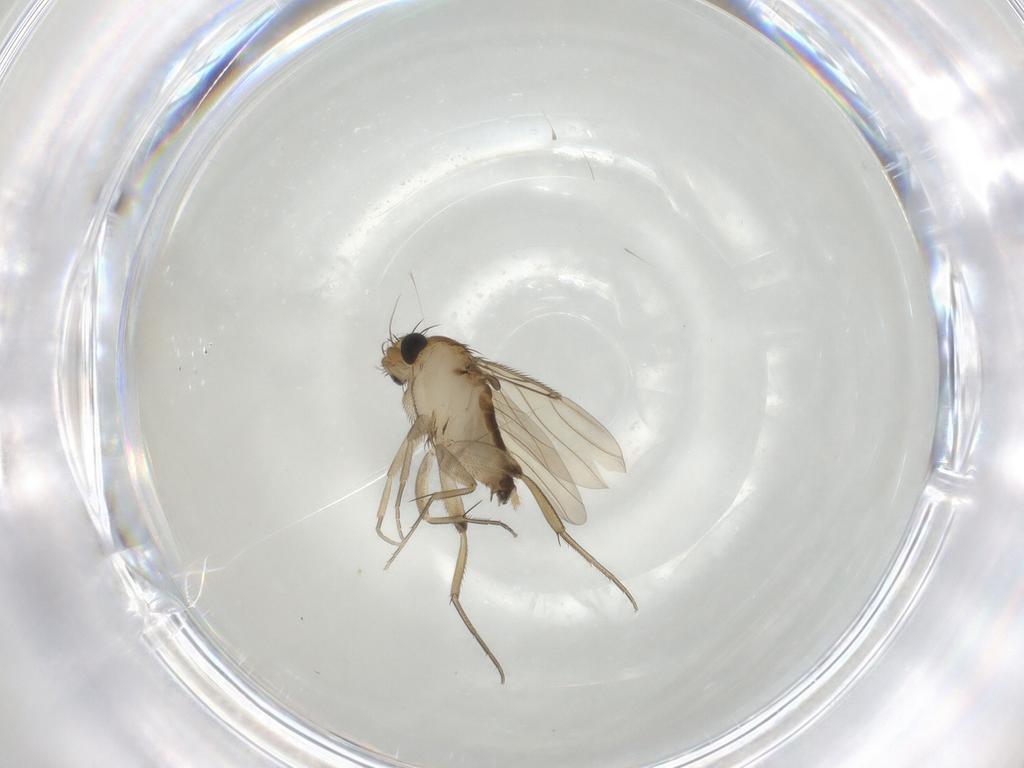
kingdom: Animalia
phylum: Arthropoda
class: Insecta
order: Diptera
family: Phoridae
